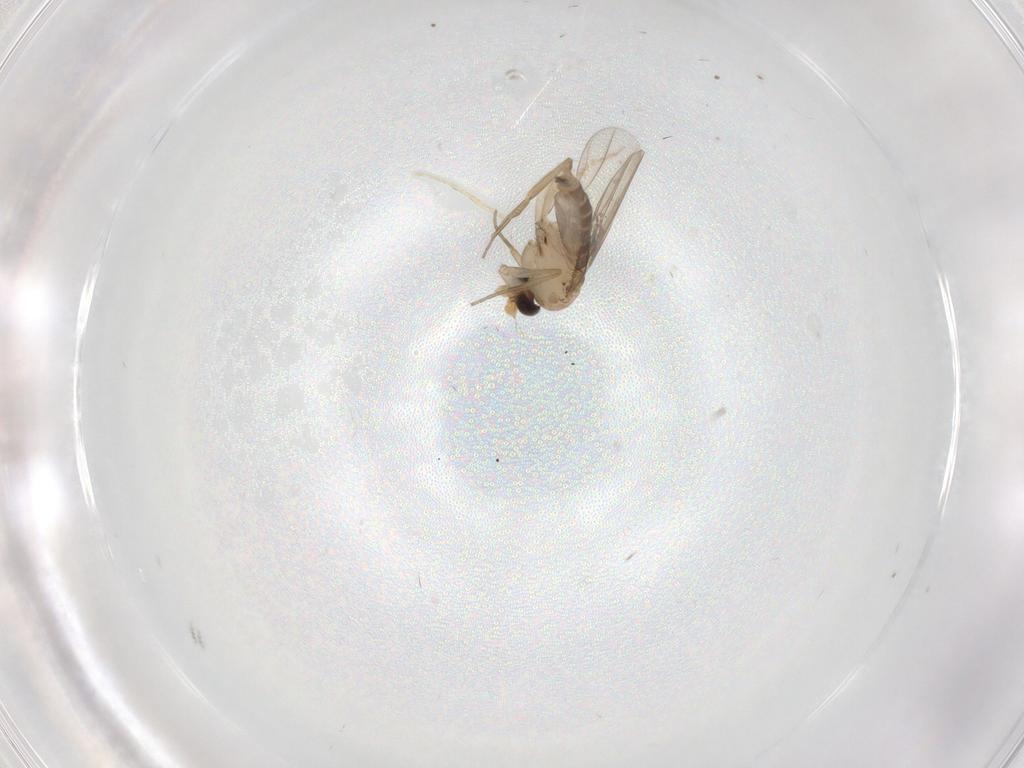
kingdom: Animalia
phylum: Arthropoda
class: Insecta
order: Diptera
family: Phoridae
